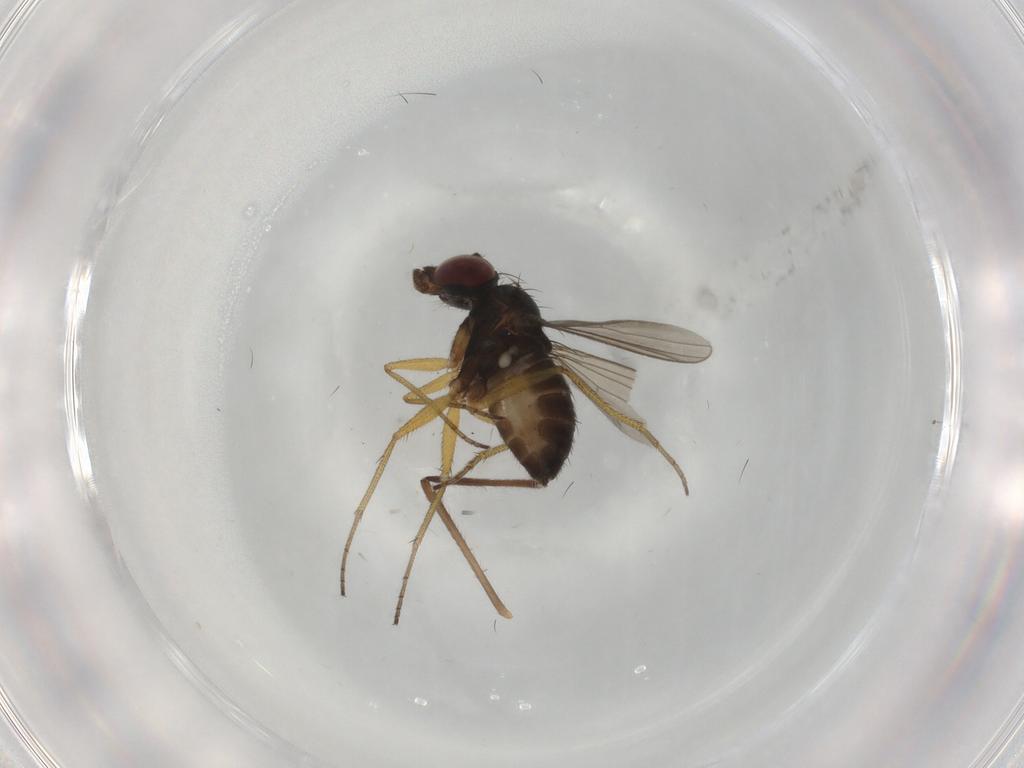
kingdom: Animalia
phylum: Arthropoda
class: Insecta
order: Diptera
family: Dolichopodidae
